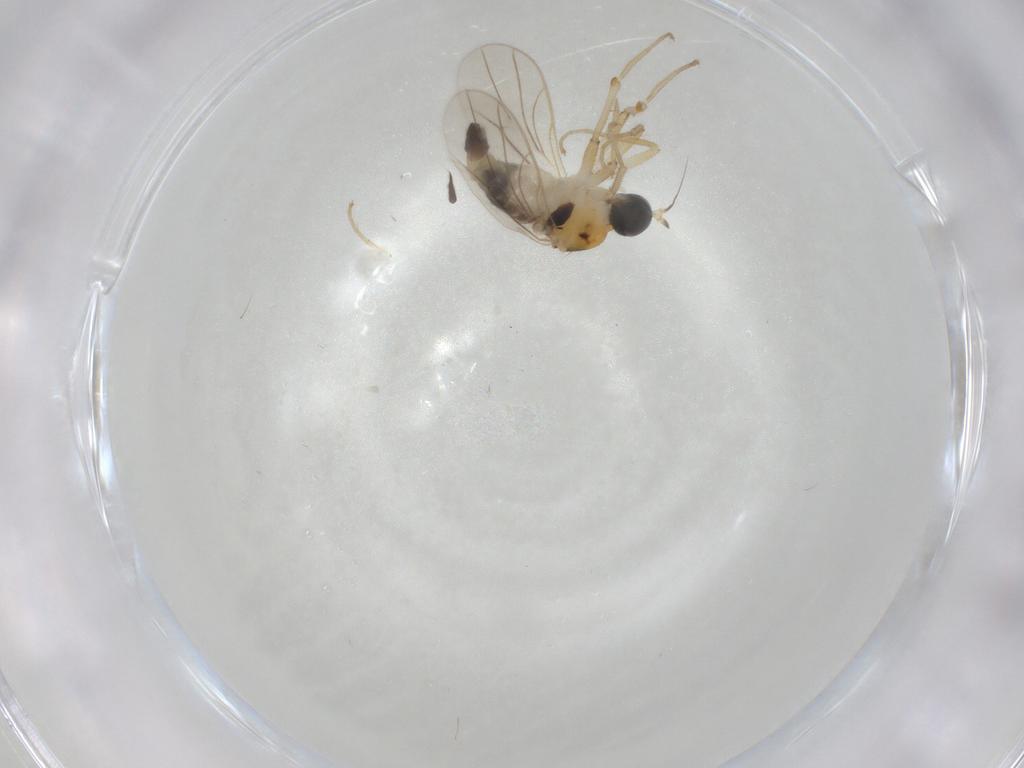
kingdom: Animalia
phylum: Arthropoda
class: Insecta
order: Diptera
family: Hybotidae
